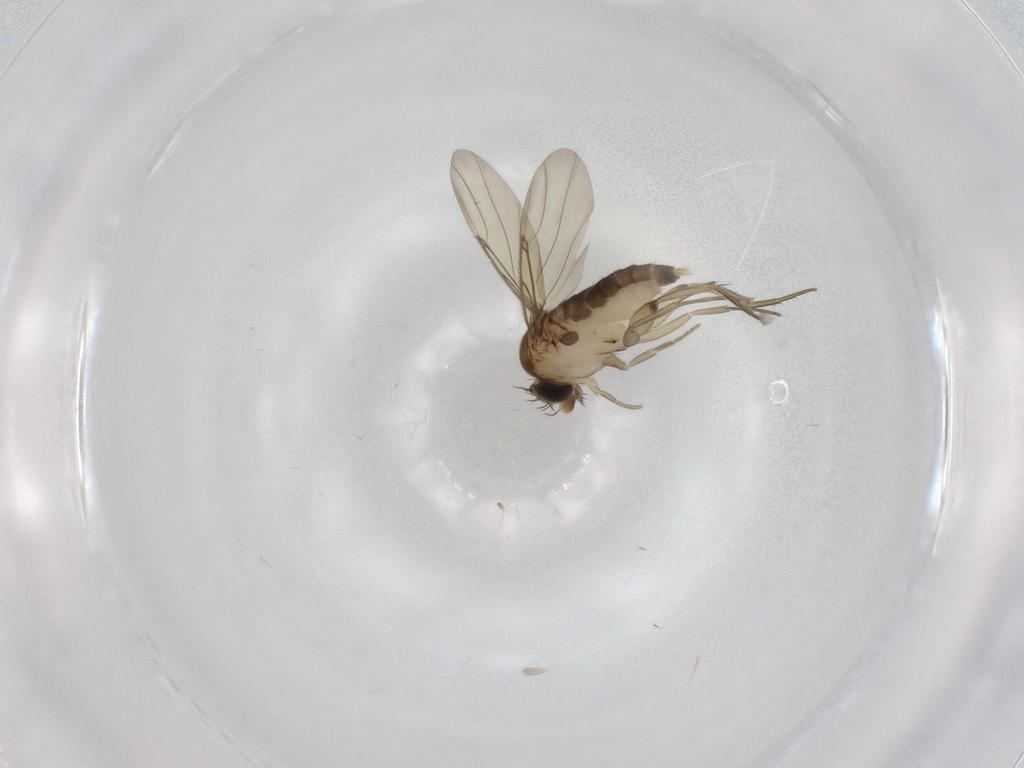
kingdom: Animalia
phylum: Arthropoda
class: Insecta
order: Diptera
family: Phoridae
